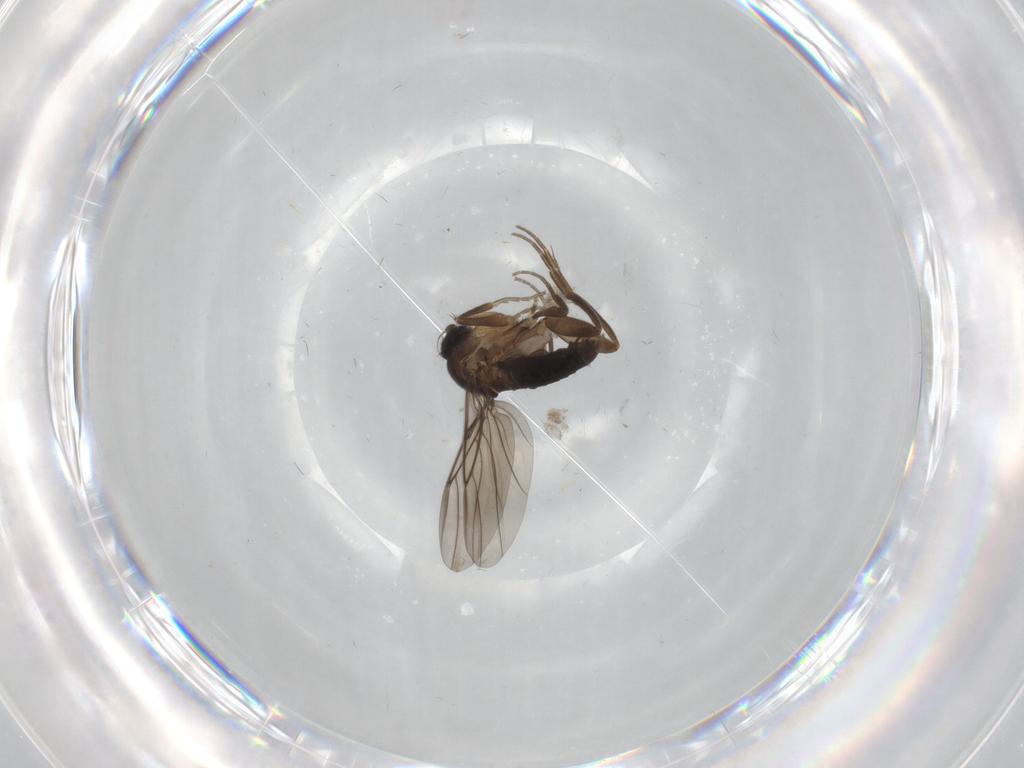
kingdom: Animalia
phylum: Arthropoda
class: Insecta
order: Diptera
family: Phoridae
